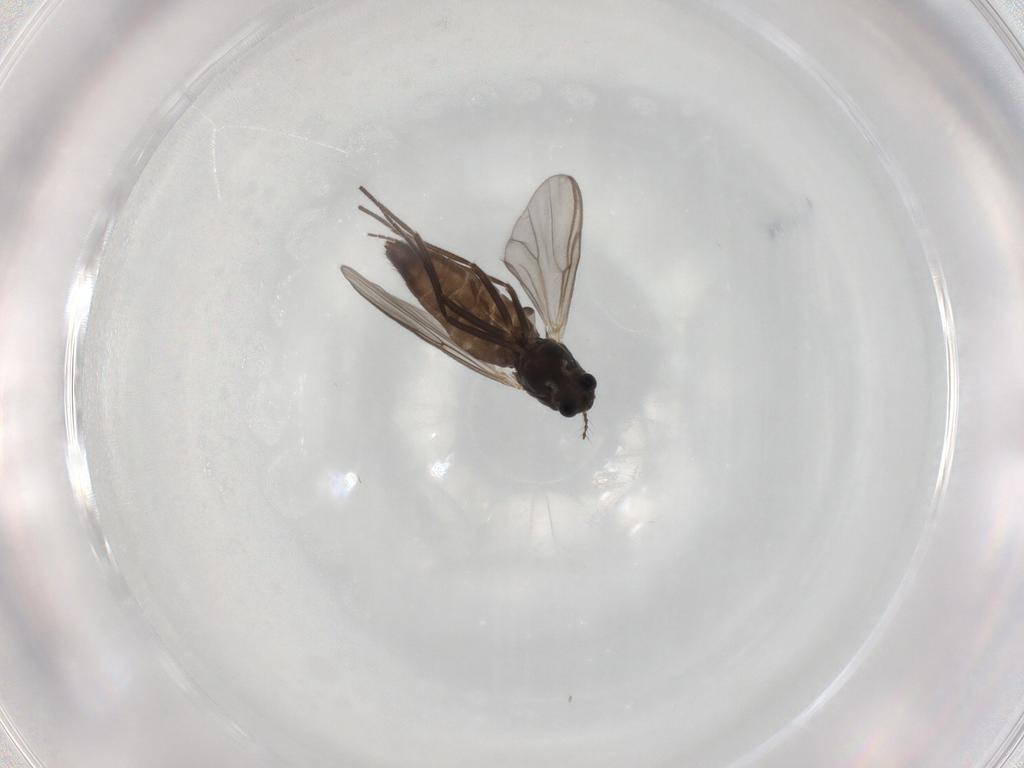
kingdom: Animalia
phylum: Arthropoda
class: Insecta
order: Diptera
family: Chironomidae
